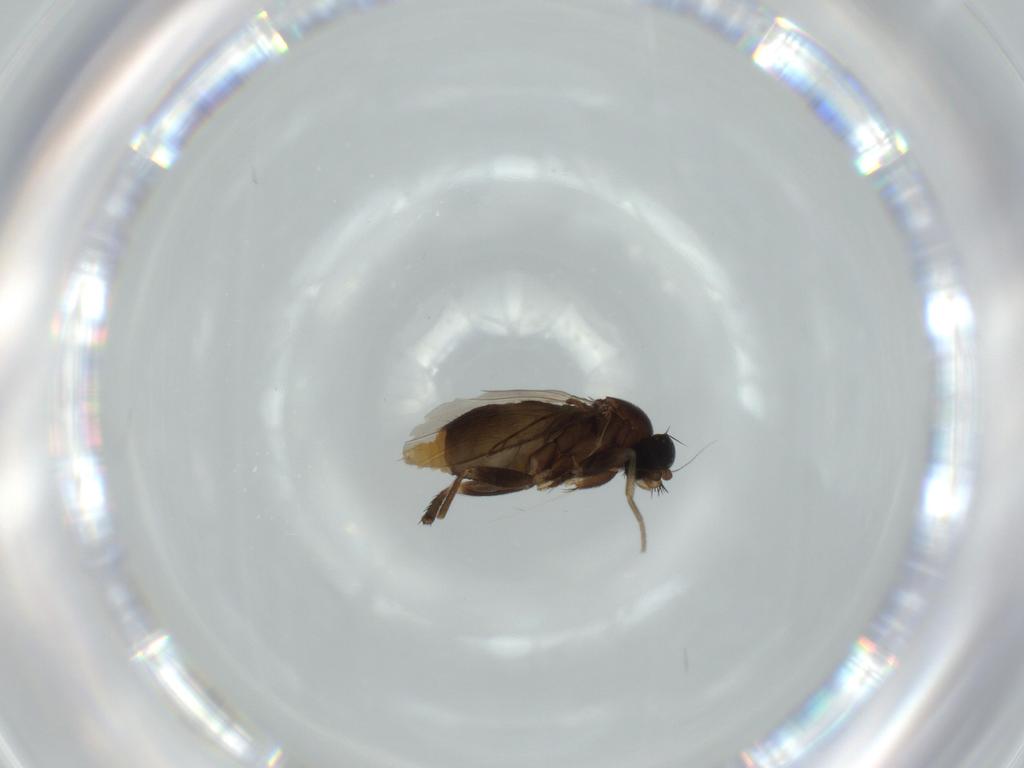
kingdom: Animalia
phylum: Arthropoda
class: Insecta
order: Diptera
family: Psychodidae
